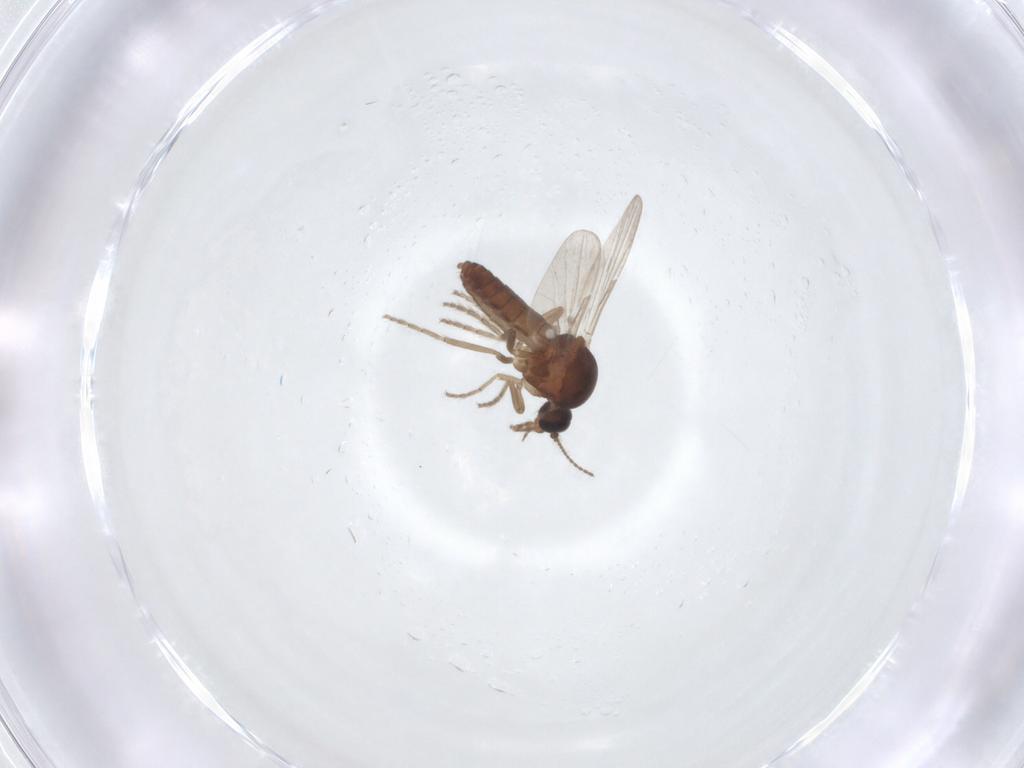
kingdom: Animalia
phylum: Arthropoda
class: Insecta
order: Diptera
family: Ceratopogonidae
